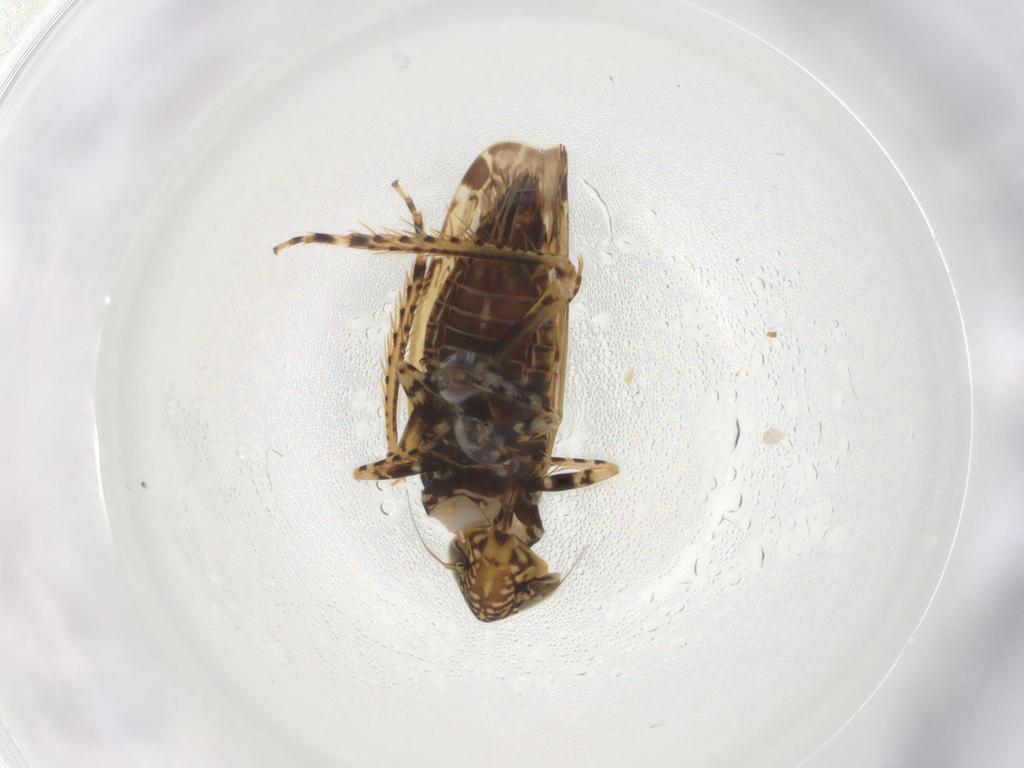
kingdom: Animalia
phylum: Arthropoda
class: Insecta
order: Hemiptera
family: Cicadellidae
